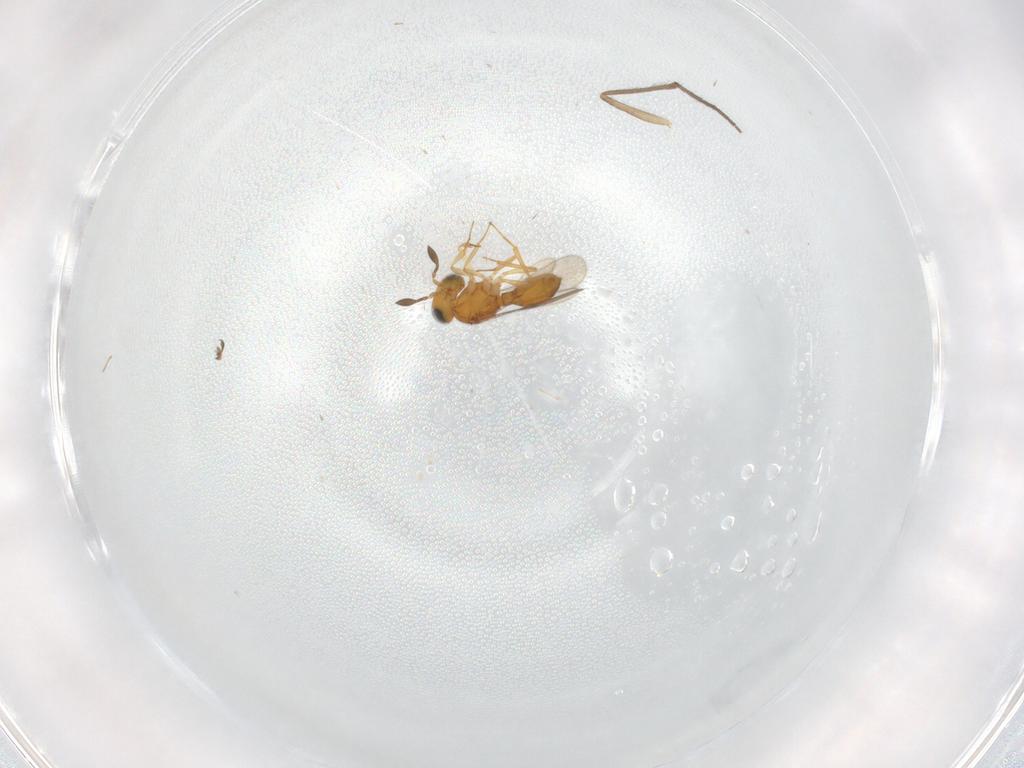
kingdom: Animalia
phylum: Arthropoda
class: Insecta
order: Hymenoptera
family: Scelionidae
